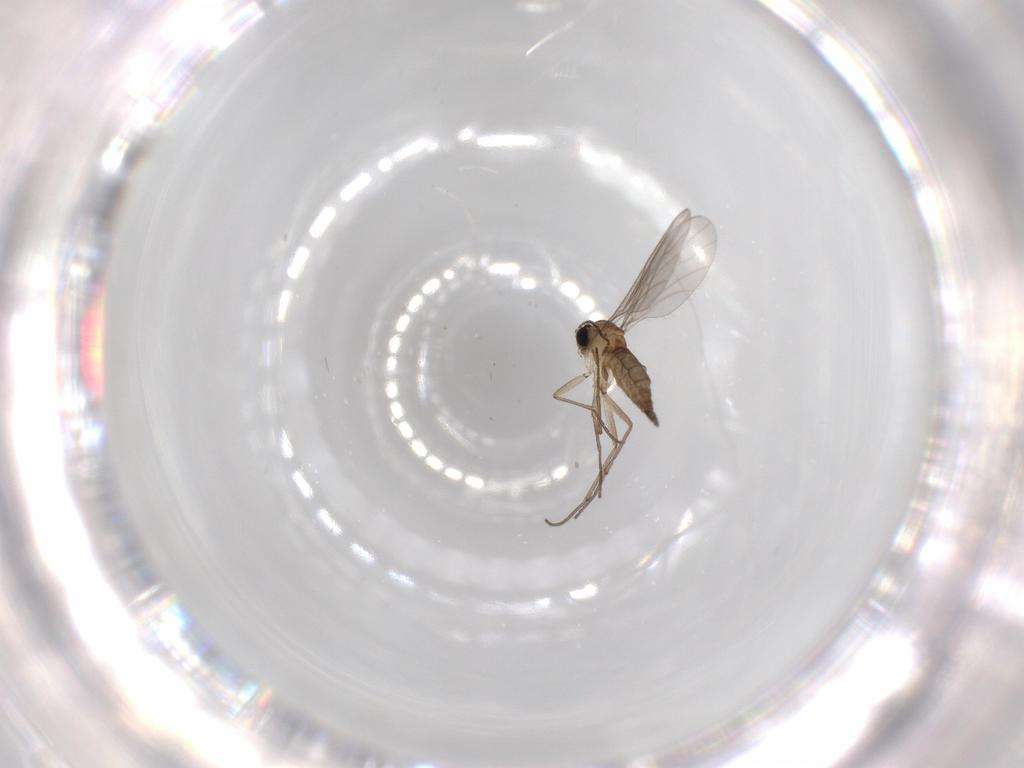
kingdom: Animalia
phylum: Arthropoda
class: Insecta
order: Diptera
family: Sciaridae
